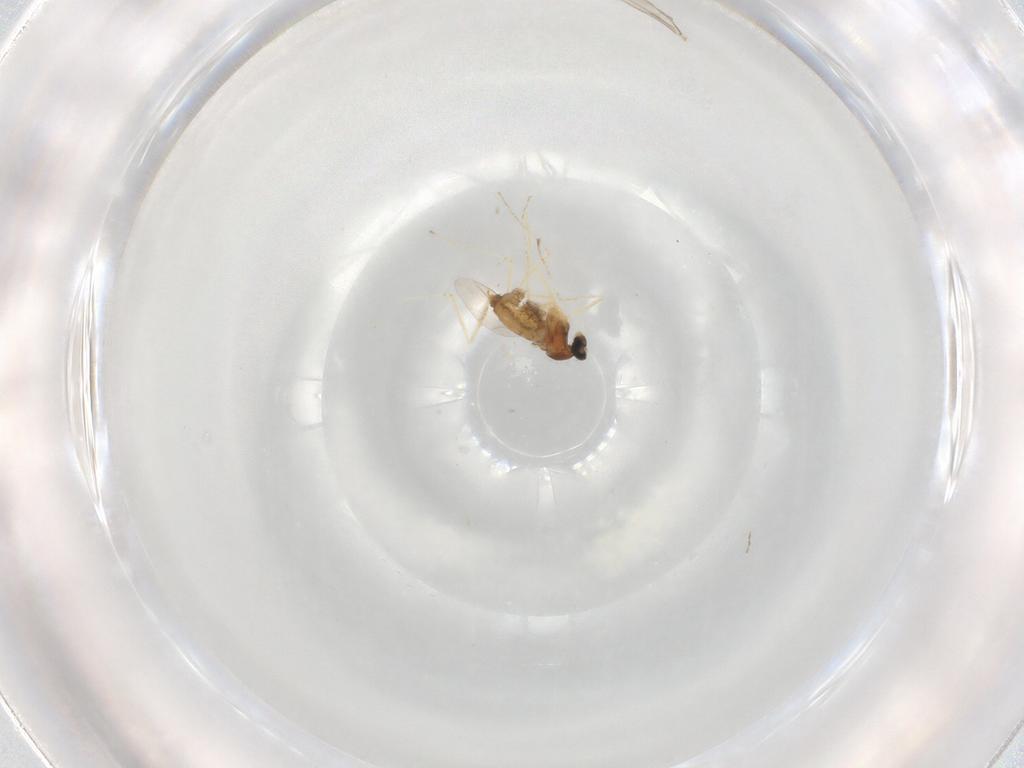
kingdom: Animalia
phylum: Arthropoda
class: Insecta
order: Diptera
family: Cecidomyiidae
